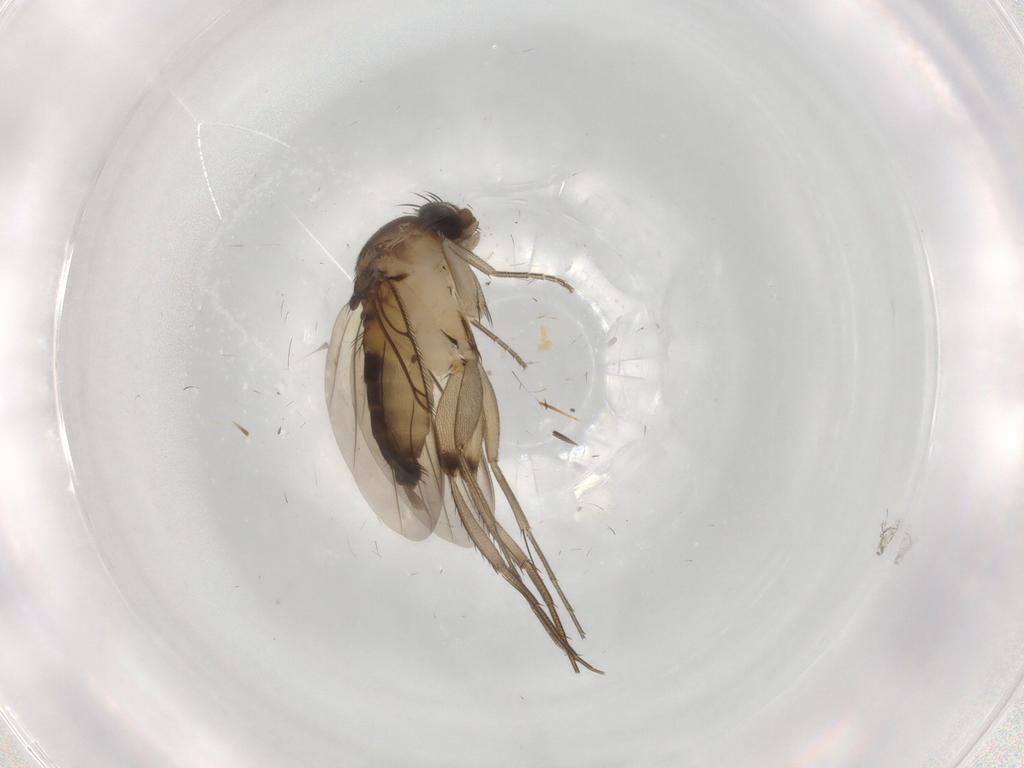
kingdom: Animalia
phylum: Arthropoda
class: Insecta
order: Diptera
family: Phoridae
